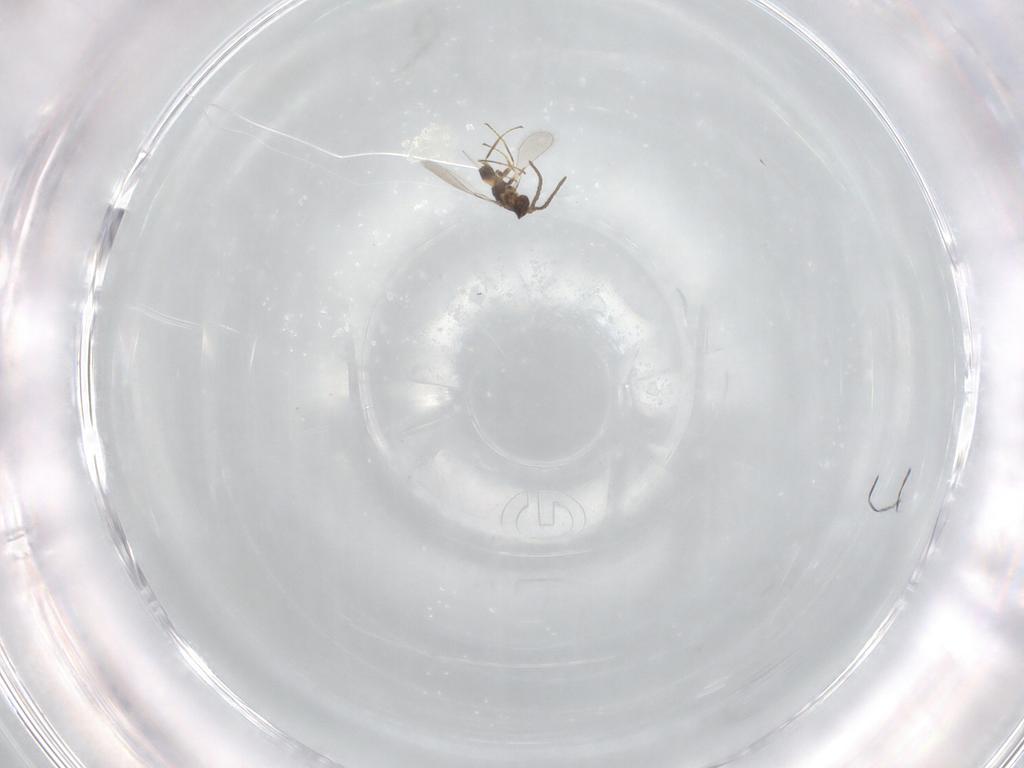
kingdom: Animalia
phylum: Arthropoda
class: Insecta
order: Hymenoptera
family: Mymaridae
